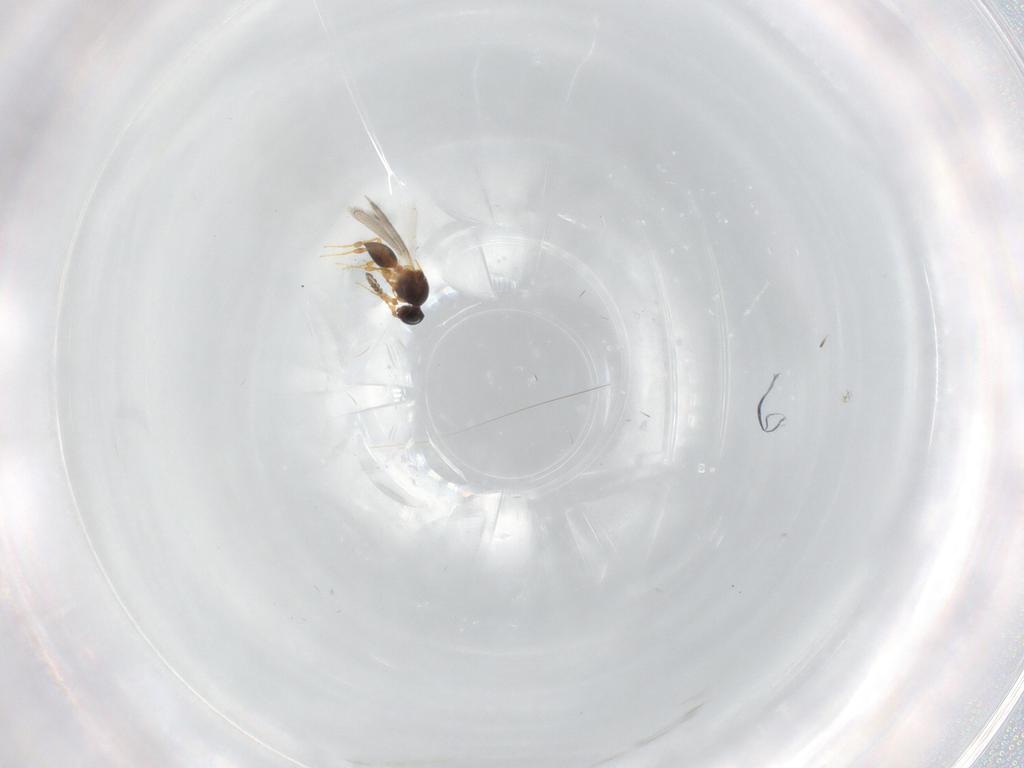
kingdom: Animalia
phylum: Arthropoda
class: Insecta
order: Hymenoptera
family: Platygastridae
